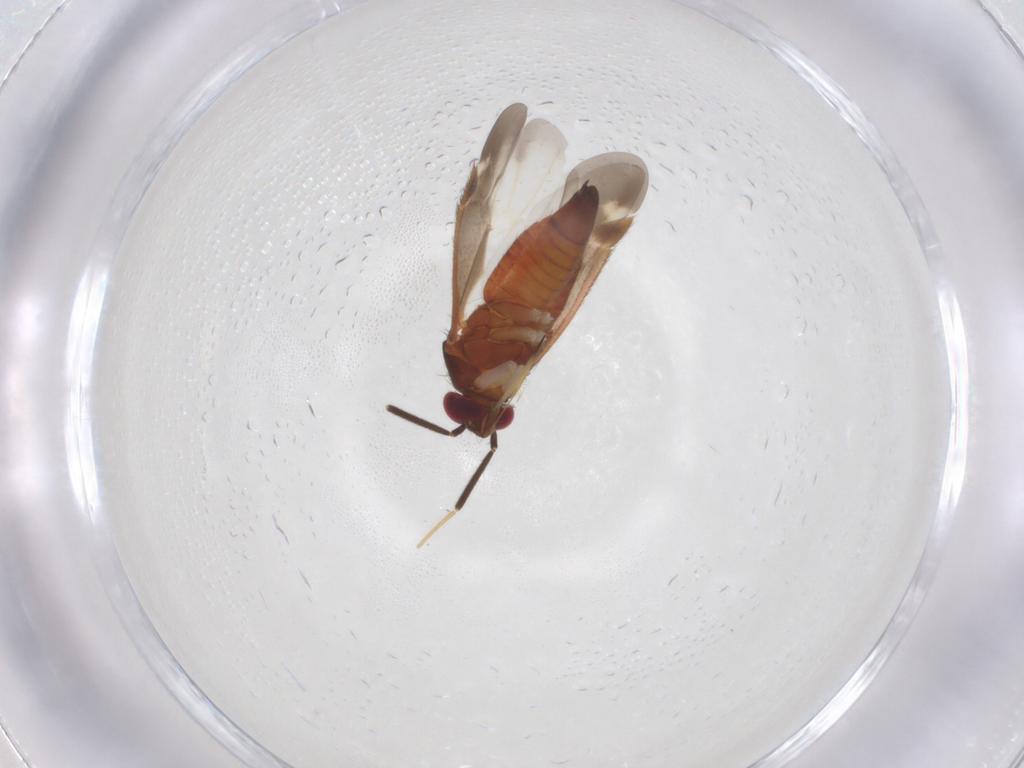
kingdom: Animalia
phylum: Arthropoda
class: Insecta
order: Hemiptera
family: Miridae
